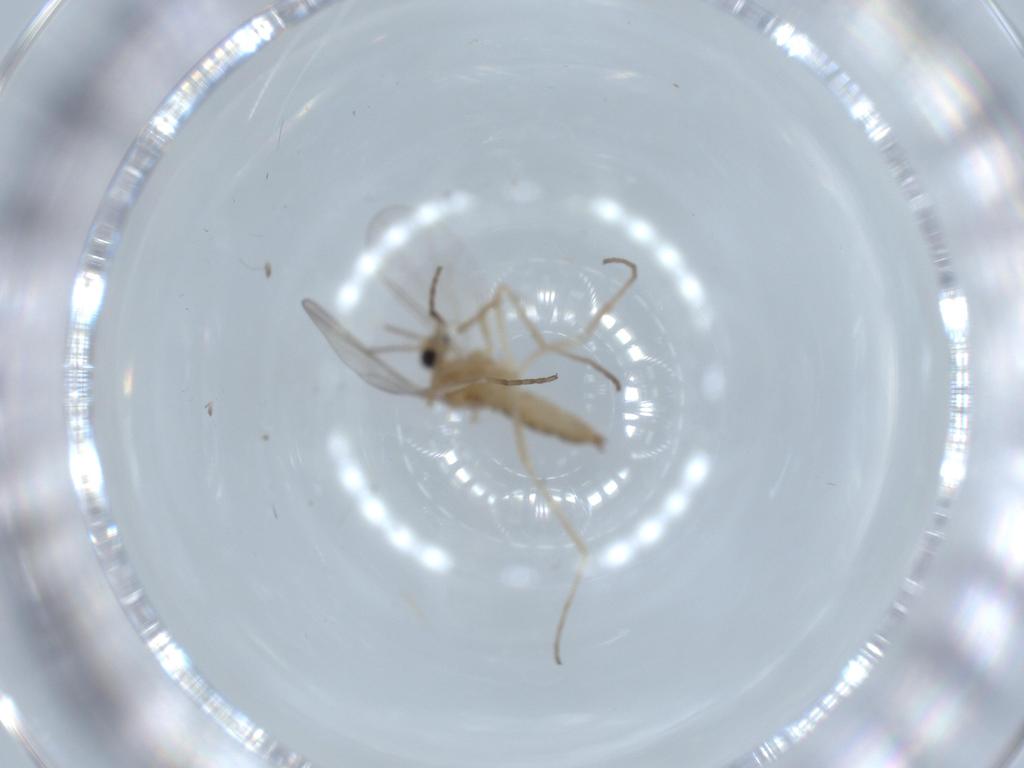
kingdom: Animalia
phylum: Arthropoda
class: Insecta
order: Diptera
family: Cecidomyiidae
